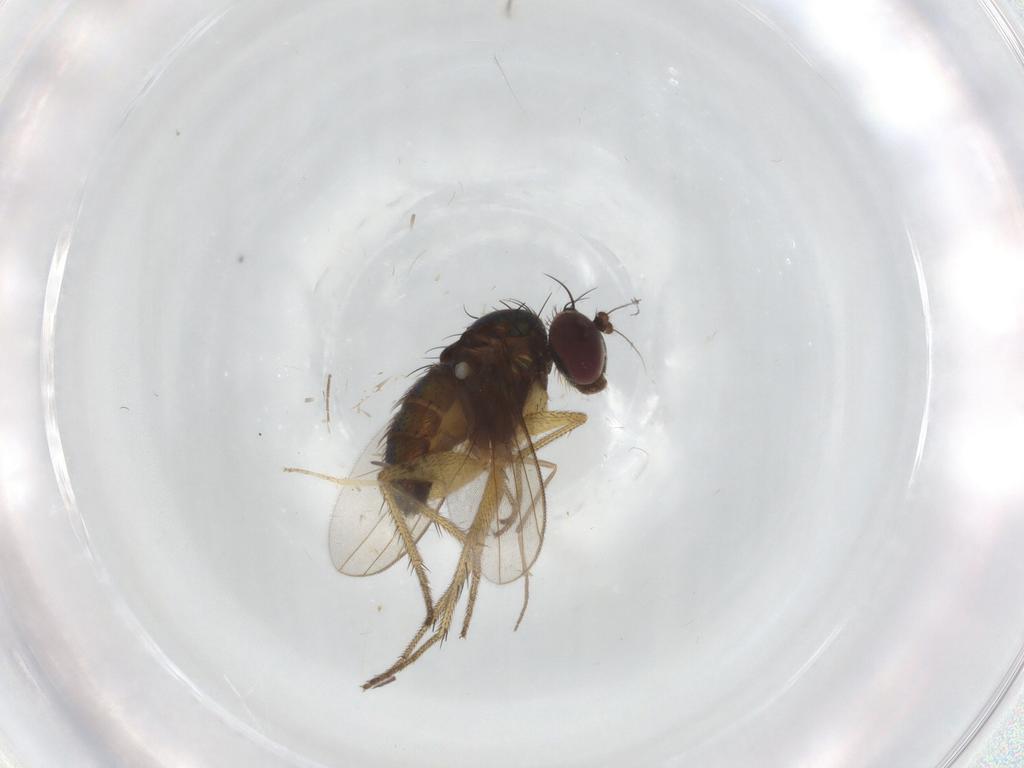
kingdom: Animalia
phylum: Arthropoda
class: Insecta
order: Diptera
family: Dolichopodidae
